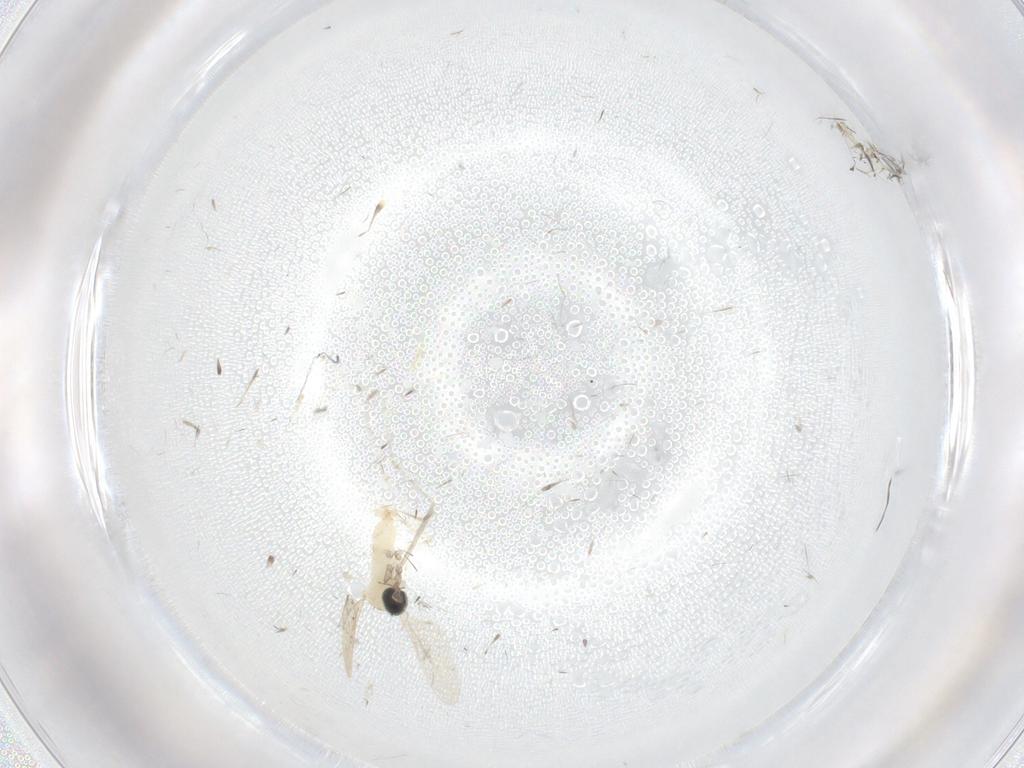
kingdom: Animalia
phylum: Arthropoda
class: Insecta
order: Diptera
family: Cecidomyiidae
